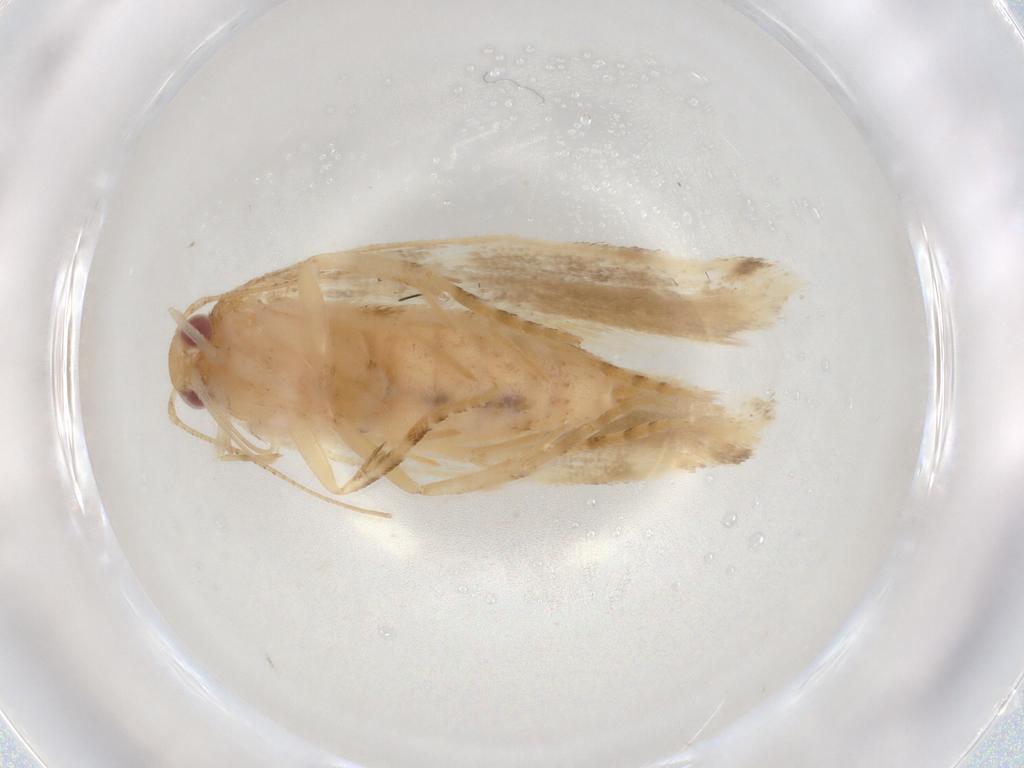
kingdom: Animalia
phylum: Arthropoda
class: Insecta
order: Lepidoptera
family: Gelechiidae
